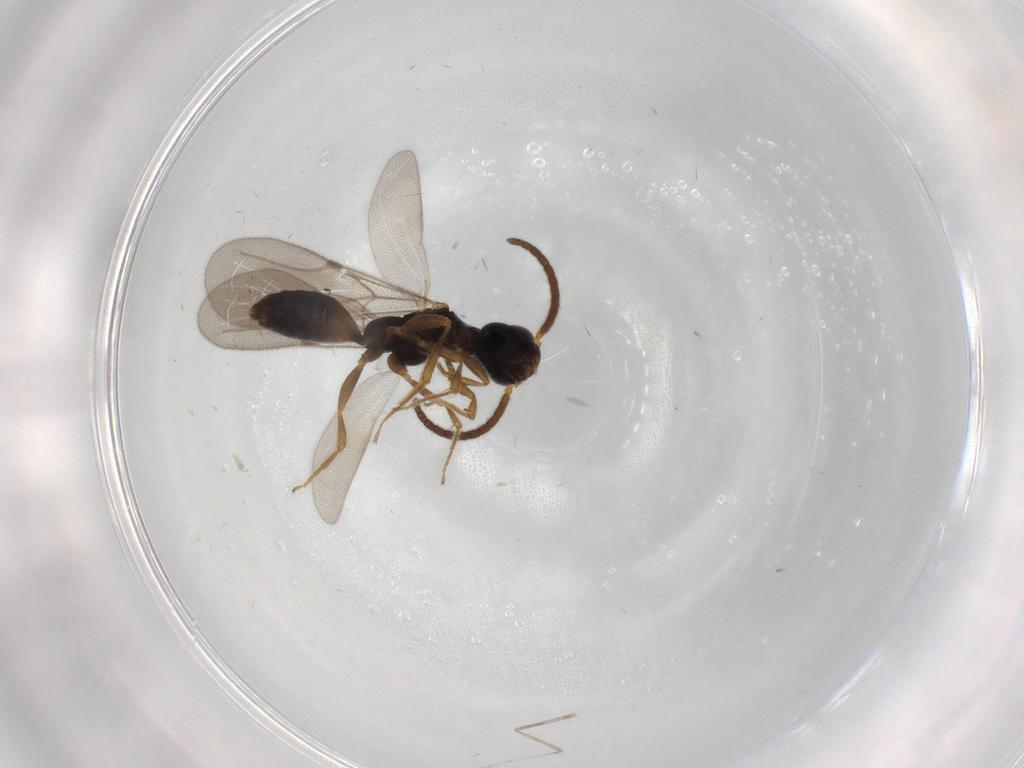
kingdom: Animalia
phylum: Arthropoda
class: Insecta
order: Hymenoptera
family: Bethylidae
